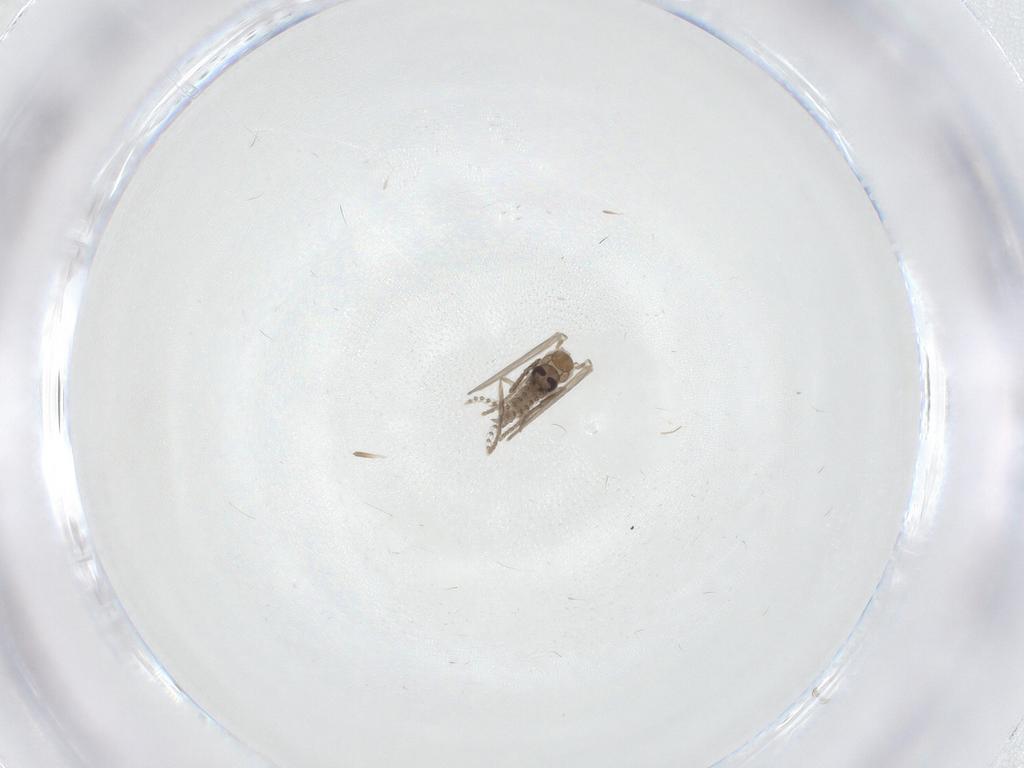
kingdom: Animalia
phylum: Arthropoda
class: Insecta
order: Diptera
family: Psychodidae
